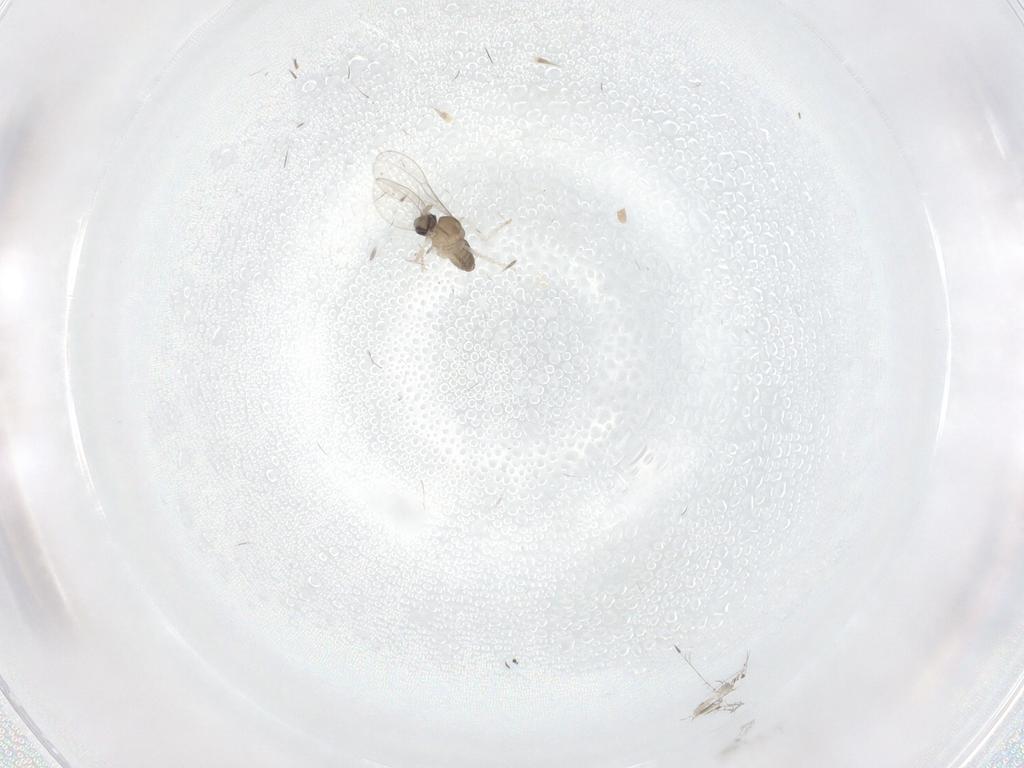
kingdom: Animalia
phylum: Arthropoda
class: Insecta
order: Diptera
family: Cecidomyiidae
